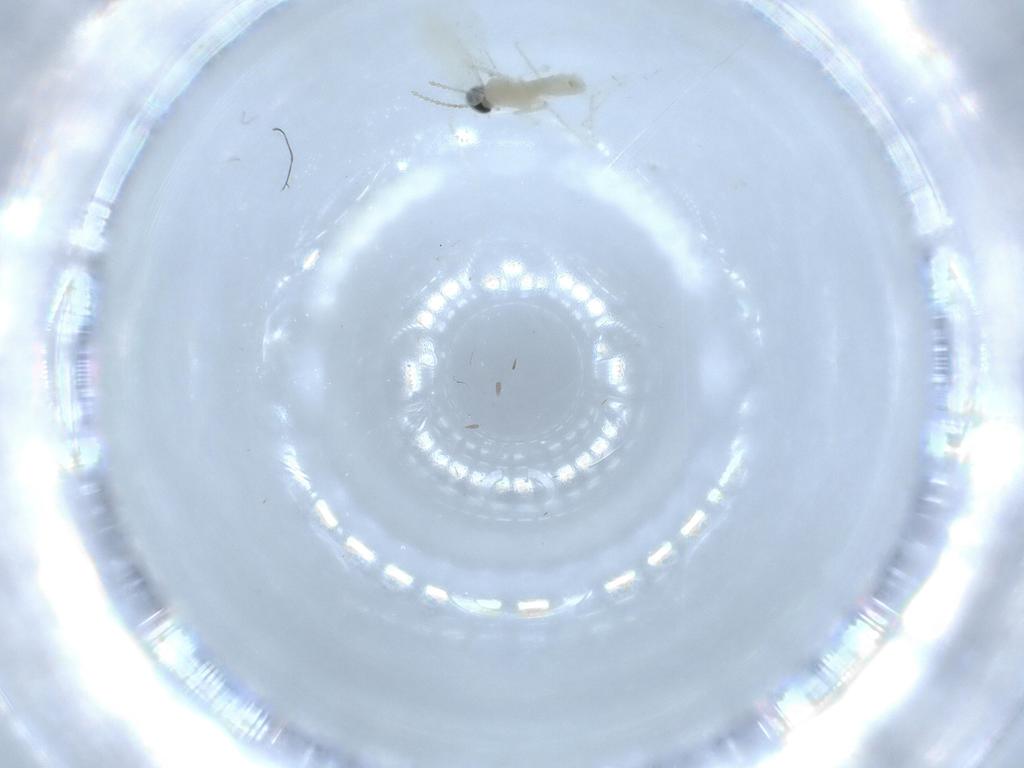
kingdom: Animalia
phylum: Arthropoda
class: Insecta
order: Diptera
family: Cecidomyiidae
